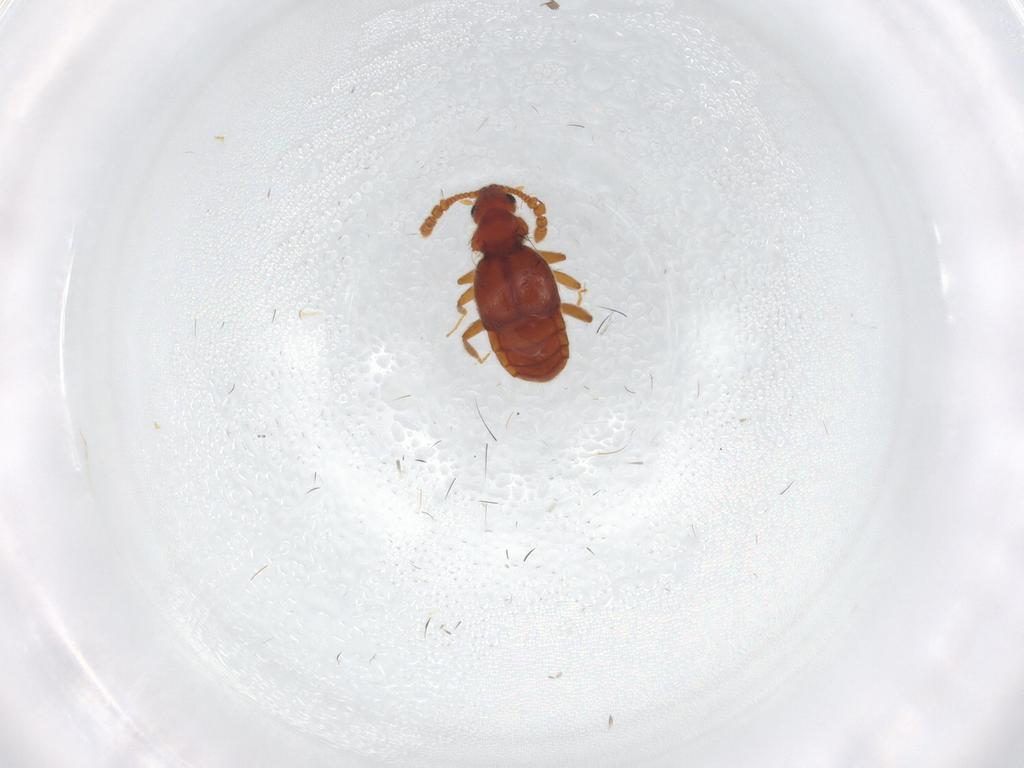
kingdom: Animalia
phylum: Arthropoda
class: Insecta
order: Coleoptera
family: Staphylinidae
